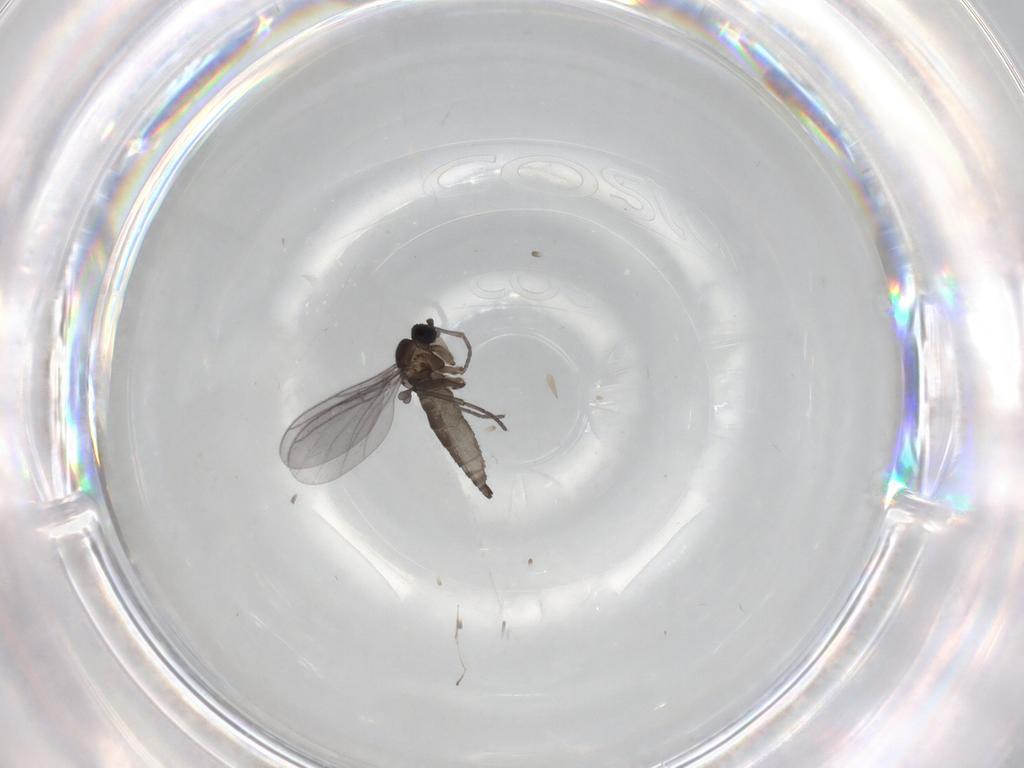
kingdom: Animalia
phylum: Arthropoda
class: Insecta
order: Diptera
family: Cecidomyiidae
